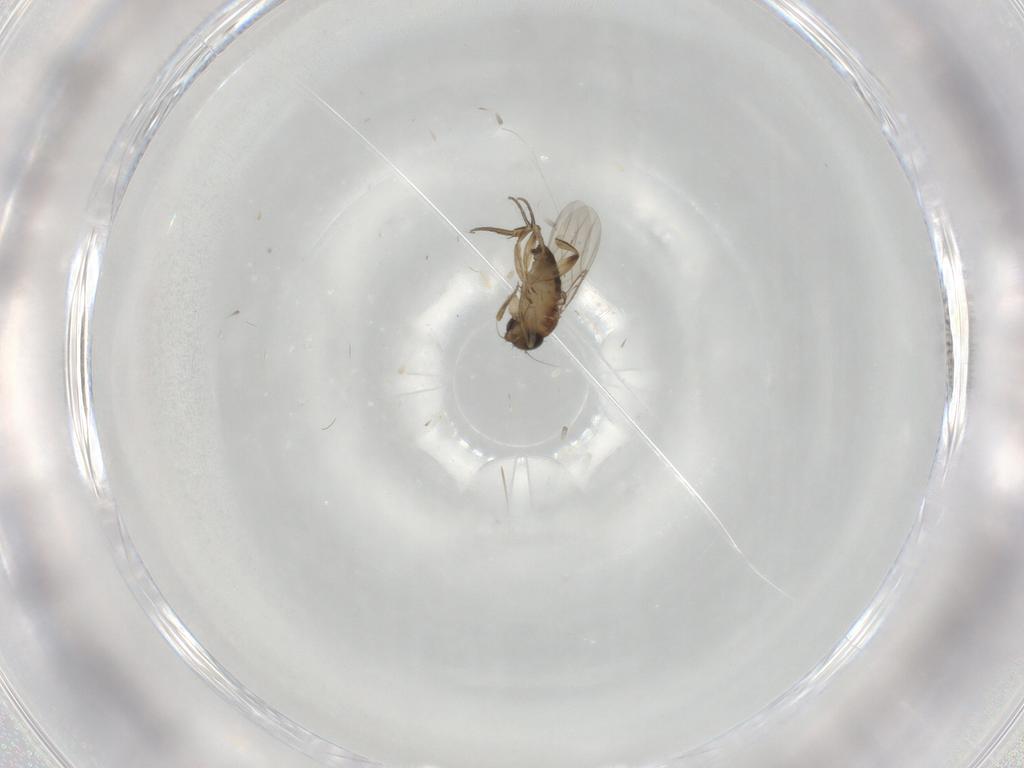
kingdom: Animalia
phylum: Arthropoda
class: Insecta
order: Diptera
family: Phoridae
